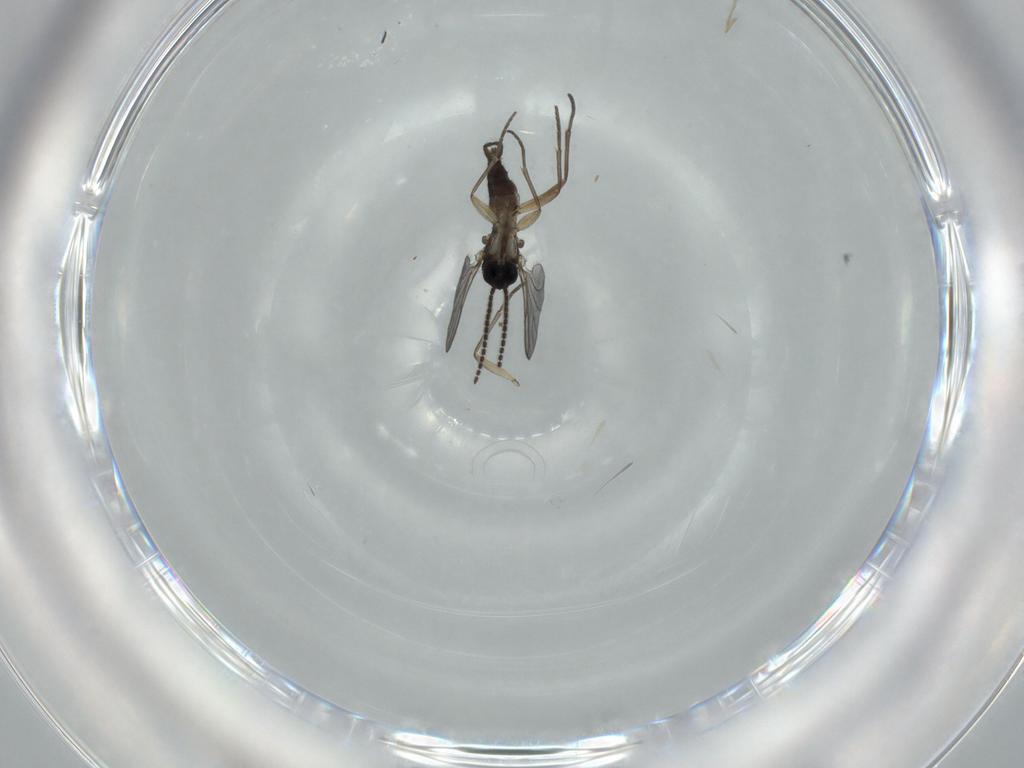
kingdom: Animalia
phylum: Arthropoda
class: Insecta
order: Diptera
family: Sciaridae
